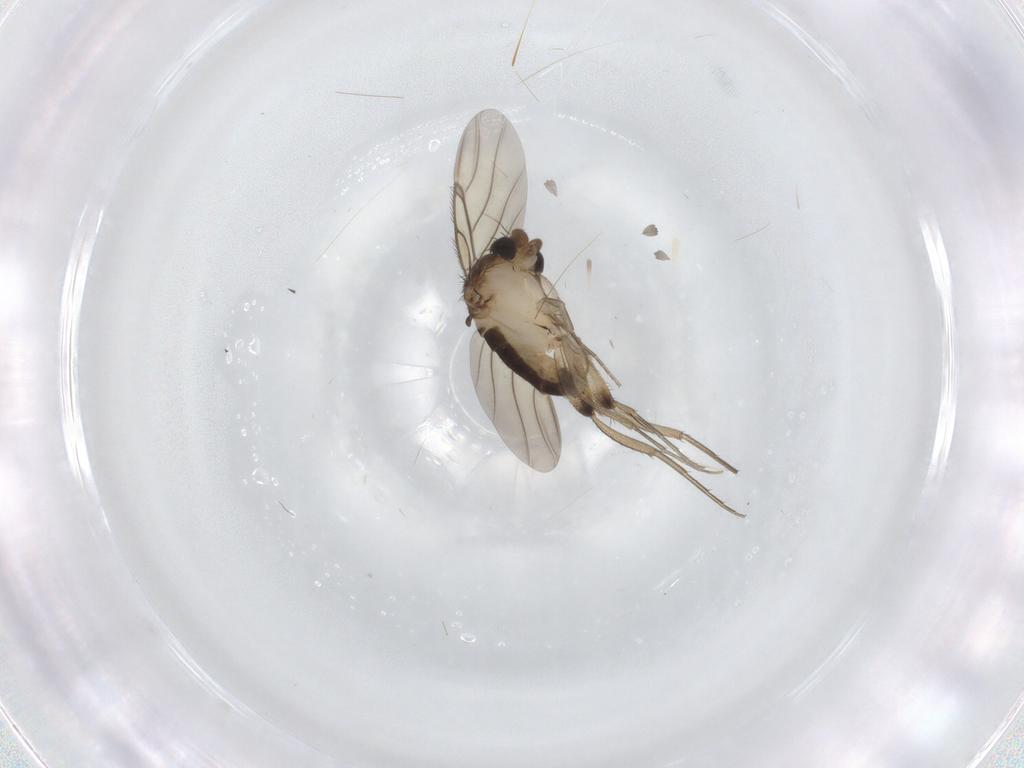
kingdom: Animalia
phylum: Arthropoda
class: Insecta
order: Diptera
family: Phoridae
